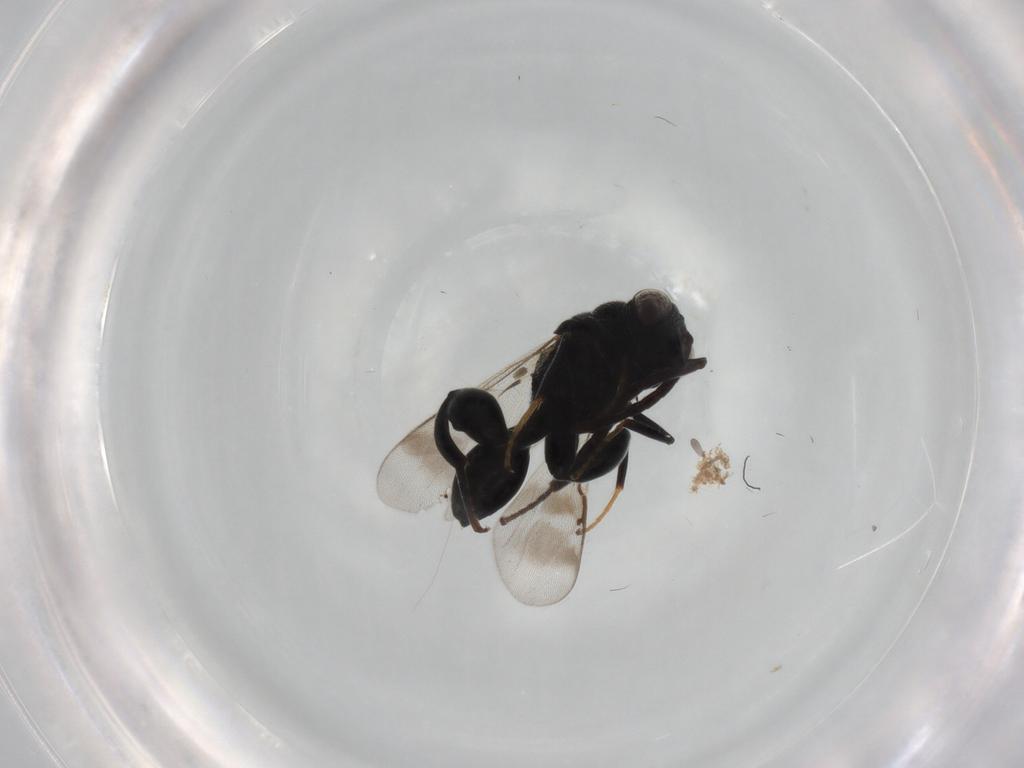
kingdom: Animalia
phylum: Arthropoda
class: Insecta
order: Hymenoptera
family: Chalcididae
